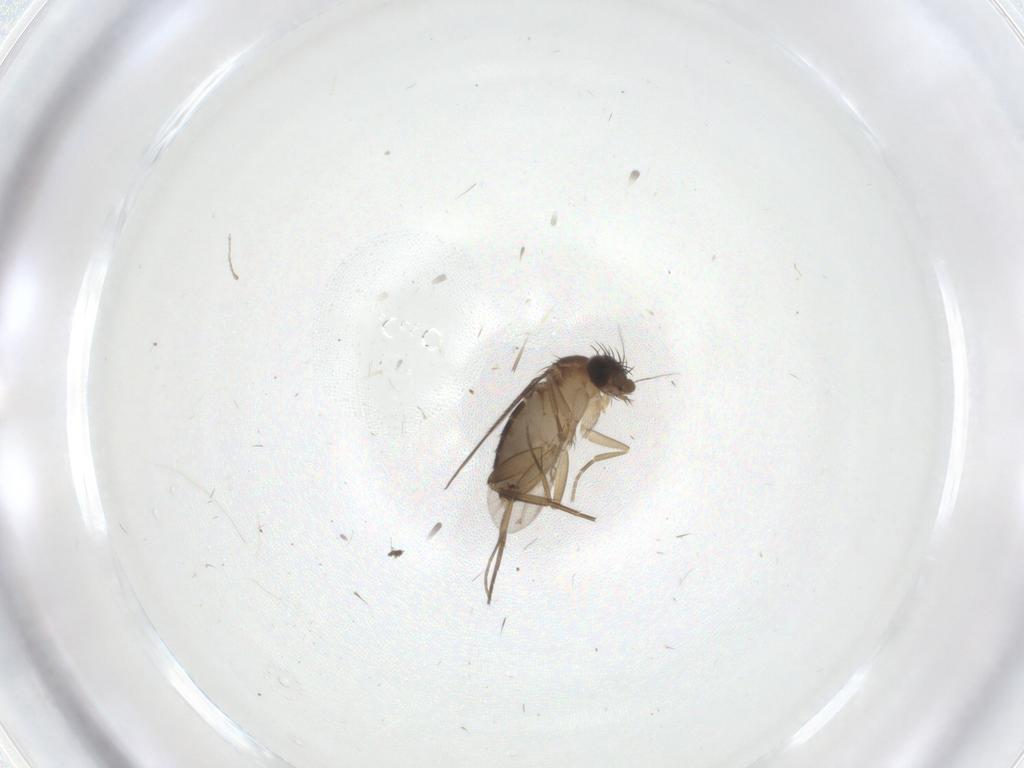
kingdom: Animalia
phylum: Arthropoda
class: Insecta
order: Diptera
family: Phoridae
